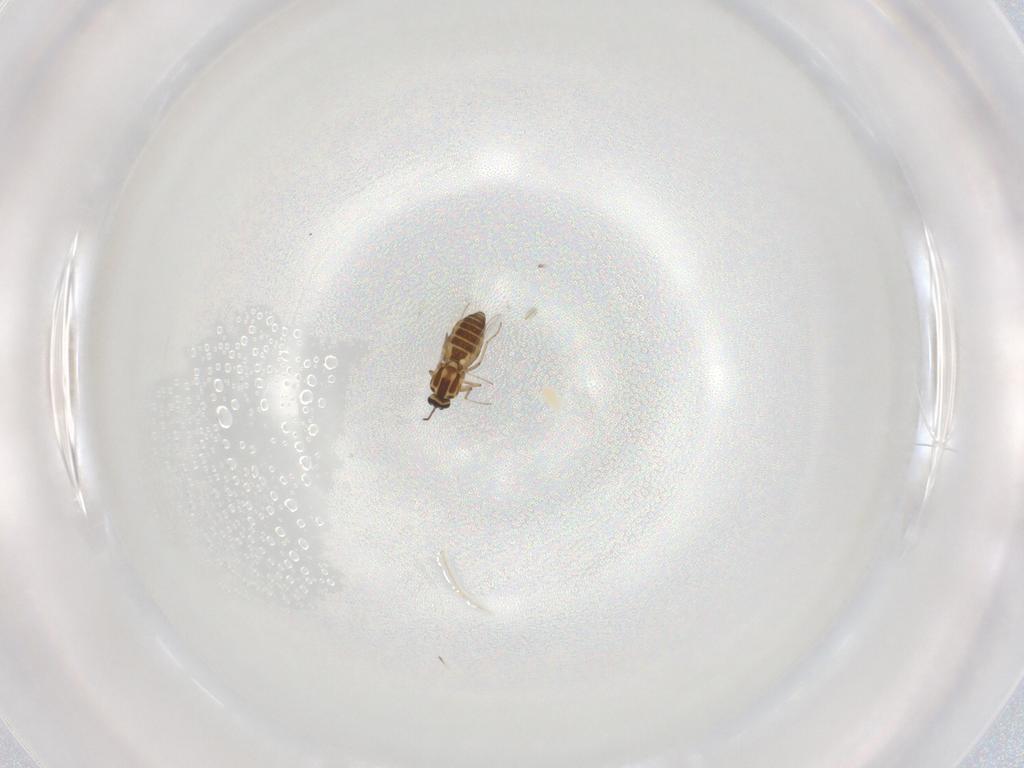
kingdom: Animalia
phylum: Arthropoda
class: Insecta
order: Diptera
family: Ceratopogonidae
